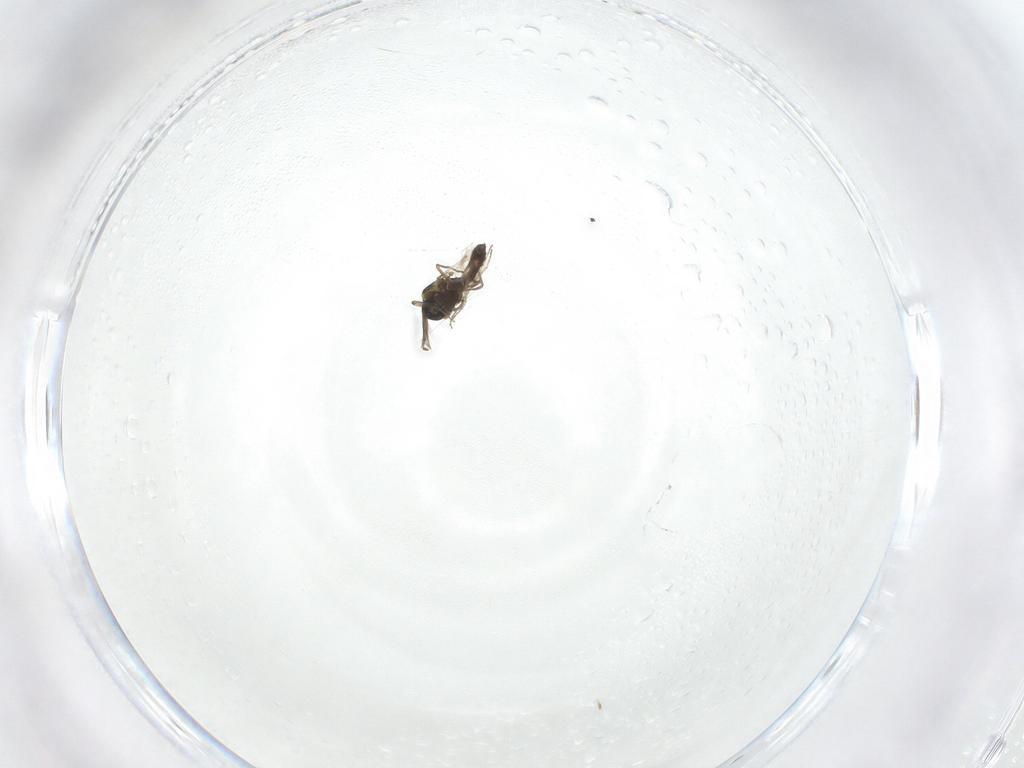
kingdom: Animalia
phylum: Arthropoda
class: Insecta
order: Diptera
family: Ceratopogonidae
